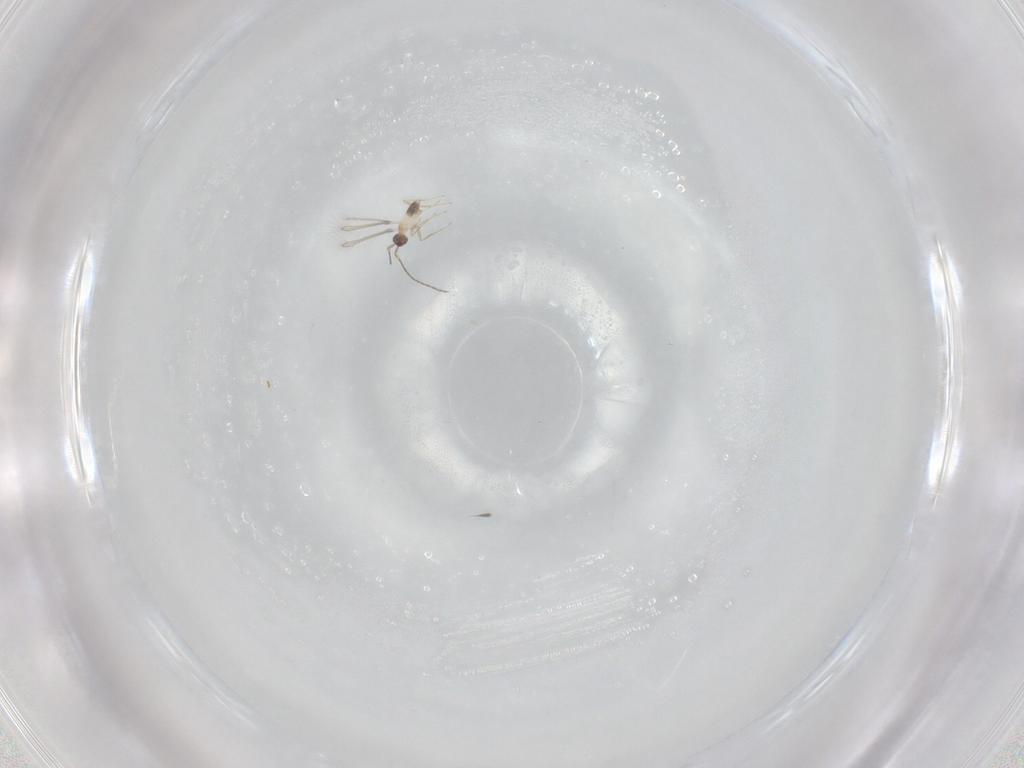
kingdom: Animalia
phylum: Arthropoda
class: Insecta
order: Hymenoptera
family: Mymaridae
